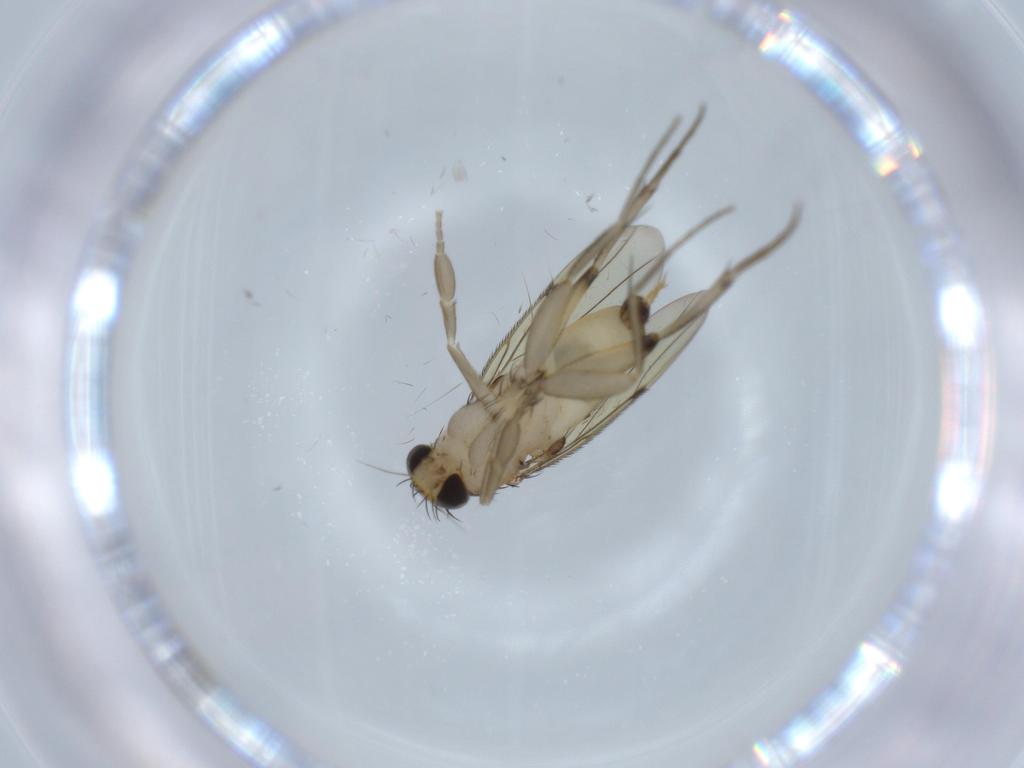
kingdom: Animalia
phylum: Arthropoda
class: Insecta
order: Diptera
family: Phoridae
